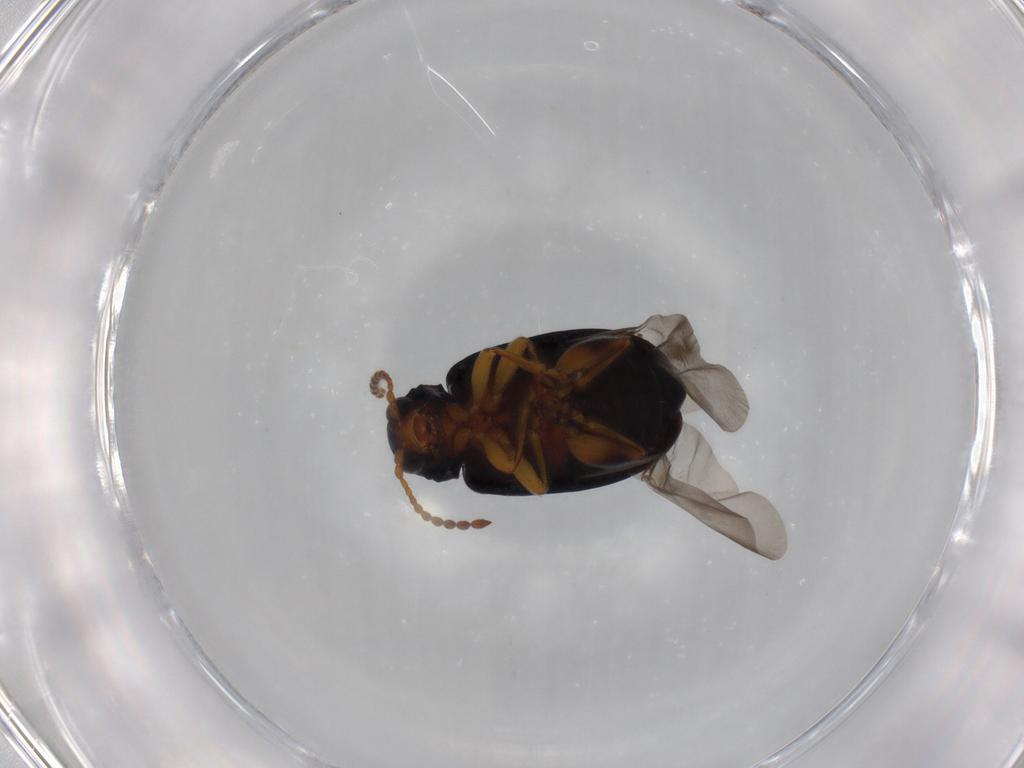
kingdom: Animalia
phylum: Arthropoda
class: Insecta
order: Coleoptera
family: Chrysomelidae
